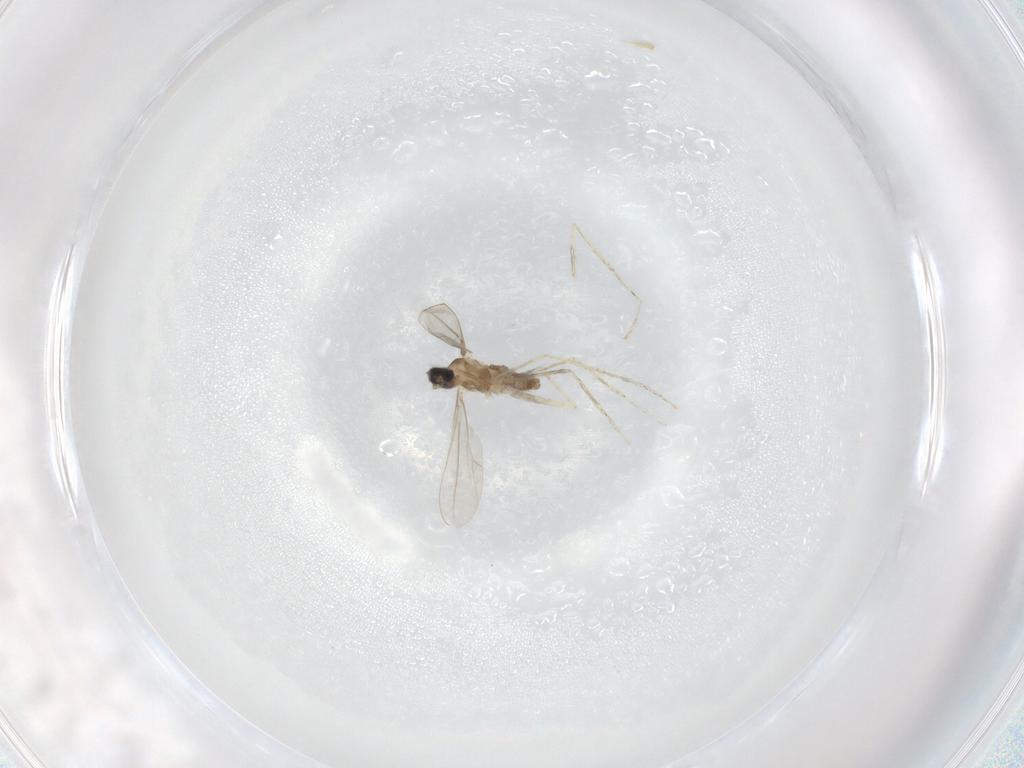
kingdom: Animalia
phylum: Arthropoda
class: Insecta
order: Diptera
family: Cecidomyiidae
